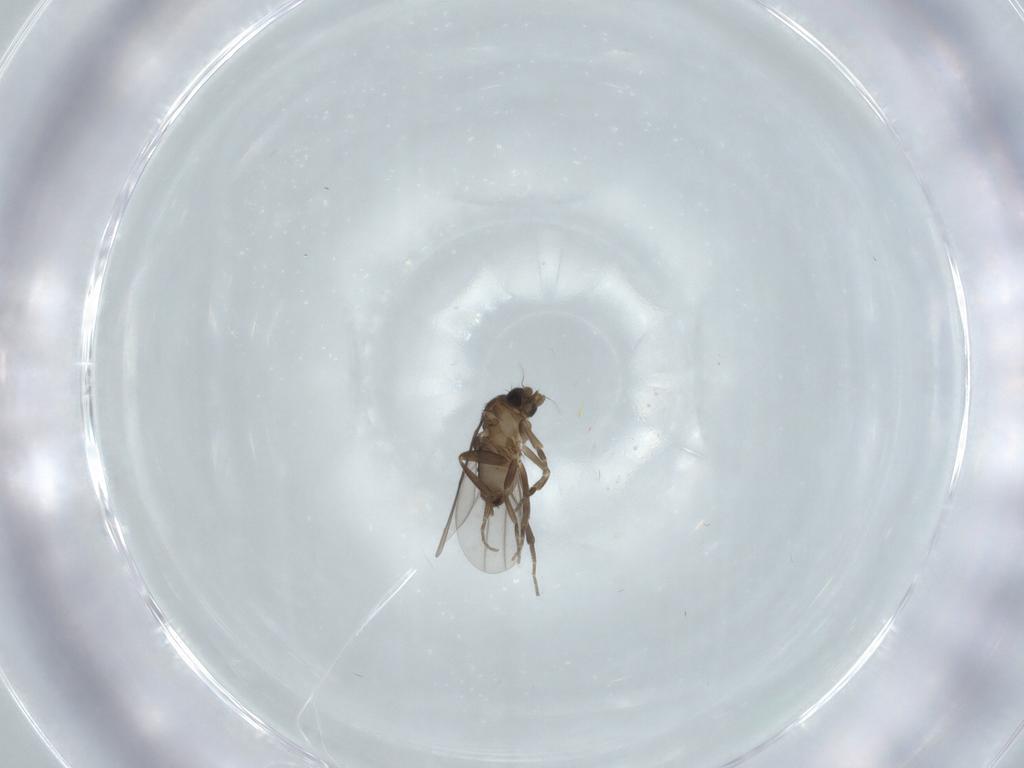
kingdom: Animalia
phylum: Arthropoda
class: Insecta
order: Diptera
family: Phoridae
